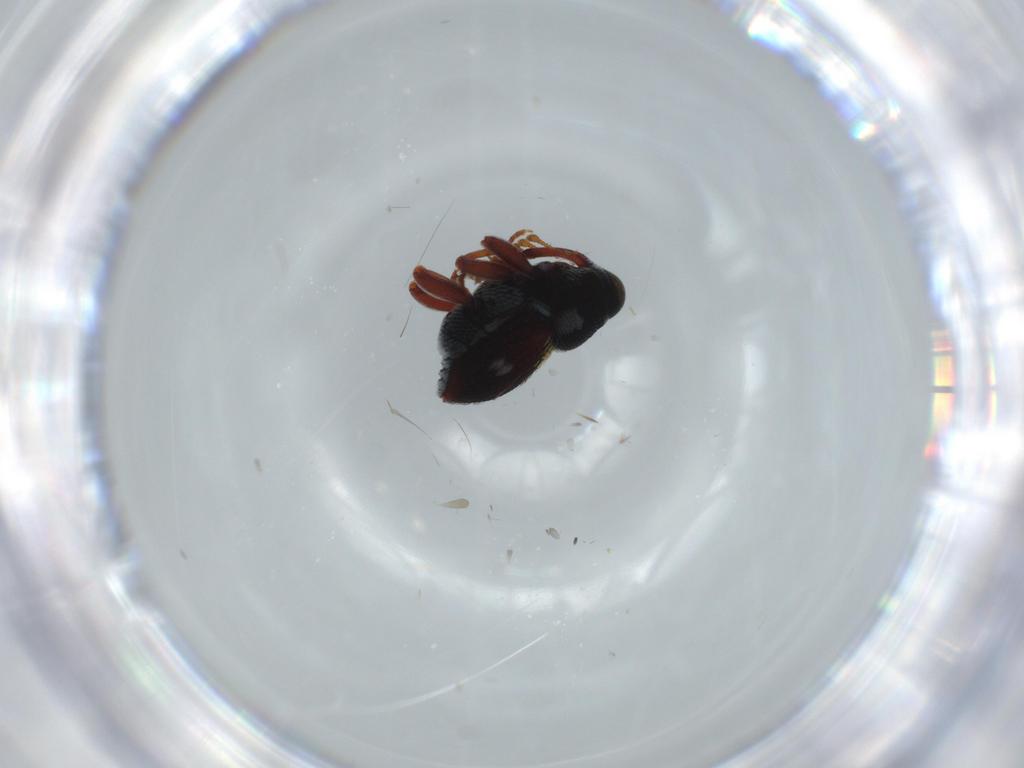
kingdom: Animalia
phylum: Arthropoda
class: Insecta
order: Coleoptera
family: Curculionidae
